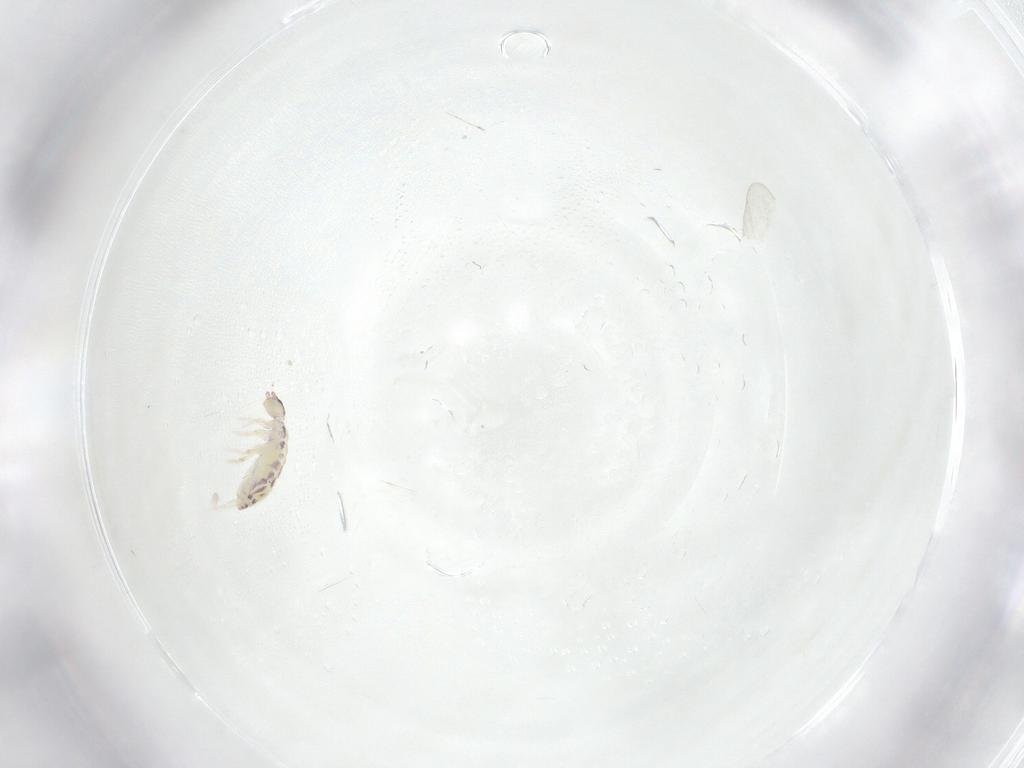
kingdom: Animalia
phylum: Arthropoda
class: Collembola
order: Entomobryomorpha
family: Entomobryidae
